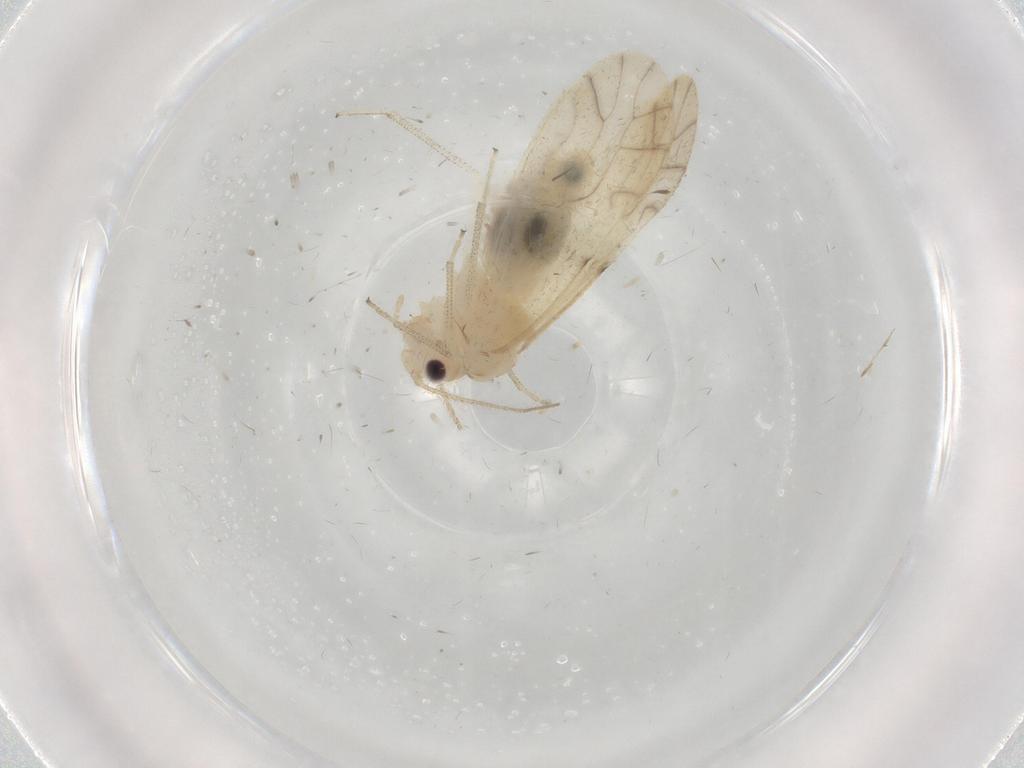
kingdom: Animalia
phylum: Arthropoda
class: Insecta
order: Psocodea
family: Caeciliusidae
